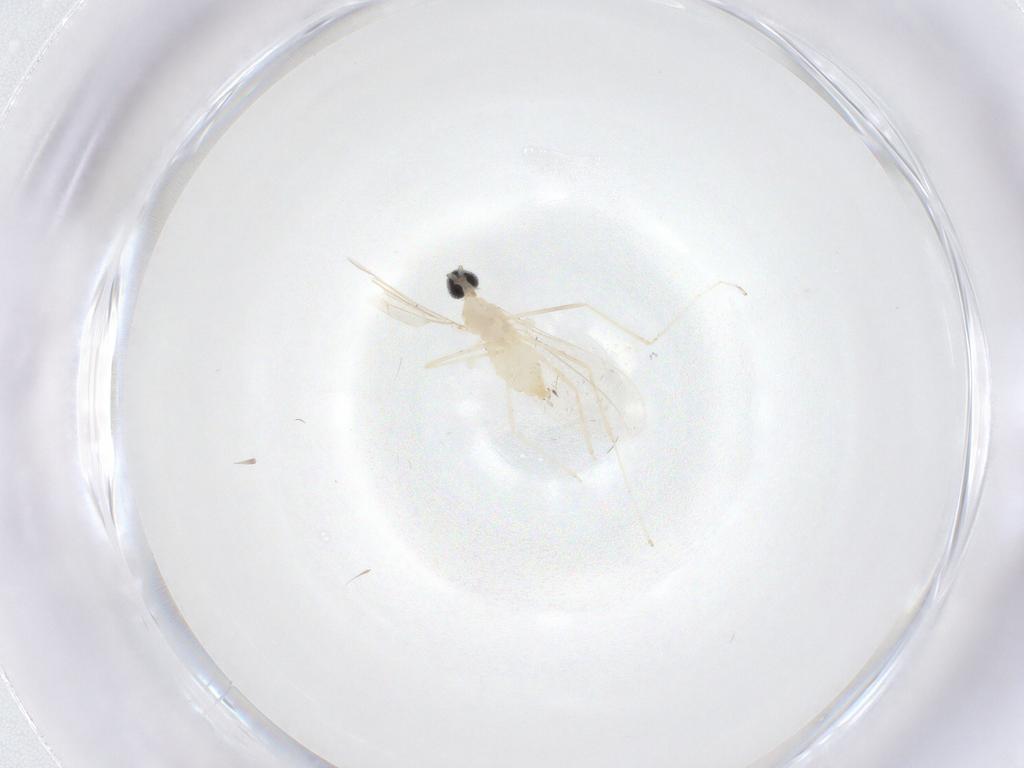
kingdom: Animalia
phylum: Arthropoda
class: Insecta
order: Diptera
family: Cecidomyiidae
